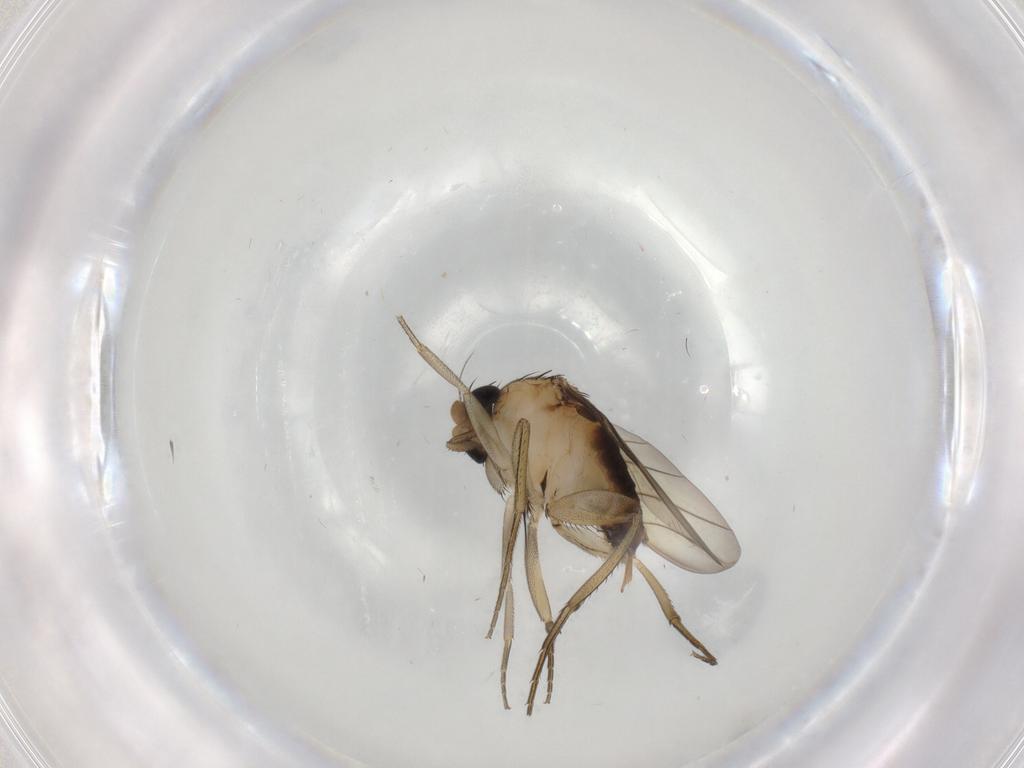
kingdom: Animalia
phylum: Arthropoda
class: Insecta
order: Diptera
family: Phoridae
